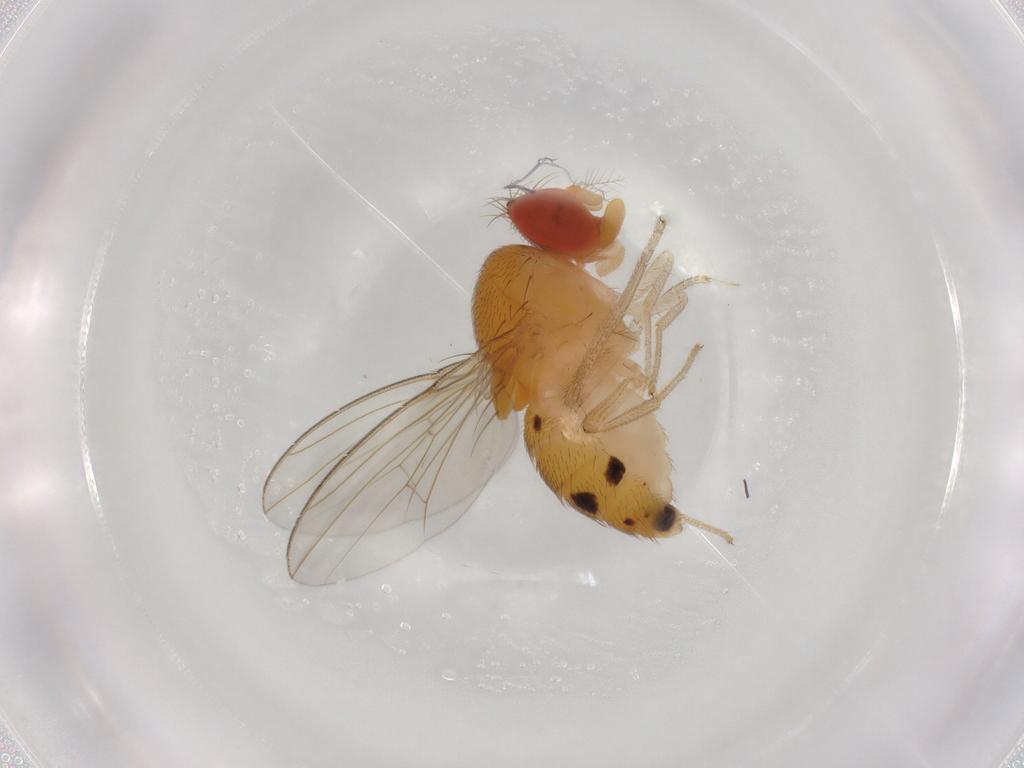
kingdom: Animalia
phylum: Arthropoda
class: Insecta
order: Diptera
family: Drosophilidae
